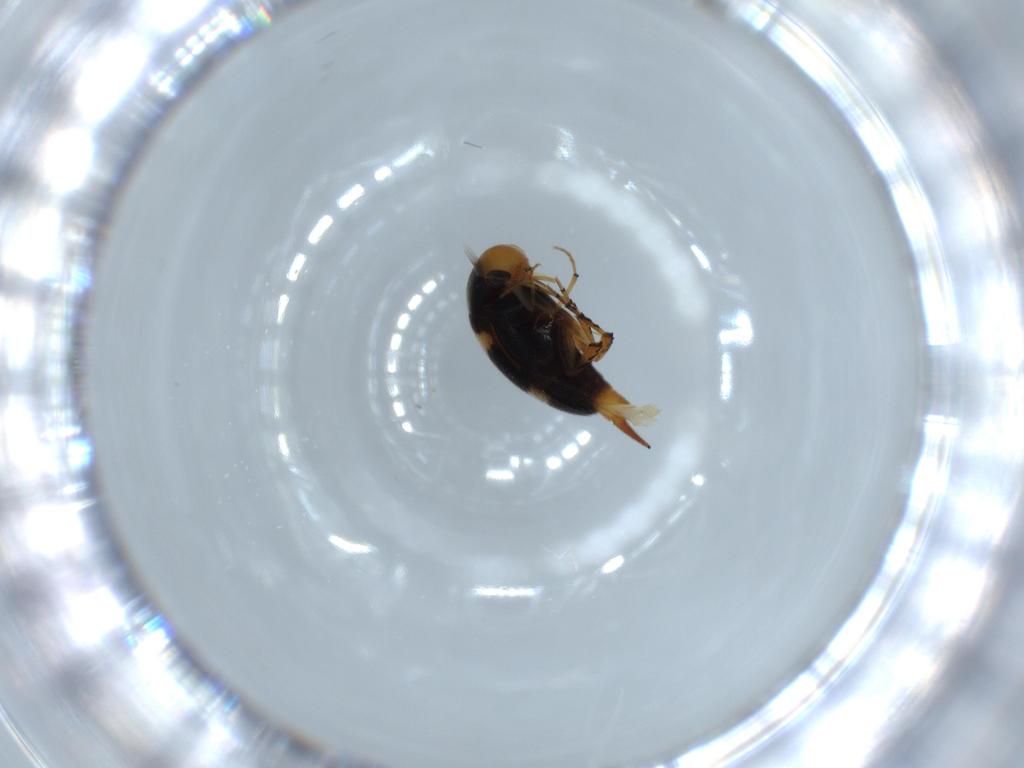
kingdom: Animalia
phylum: Arthropoda
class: Insecta
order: Coleoptera
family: Mordellidae
